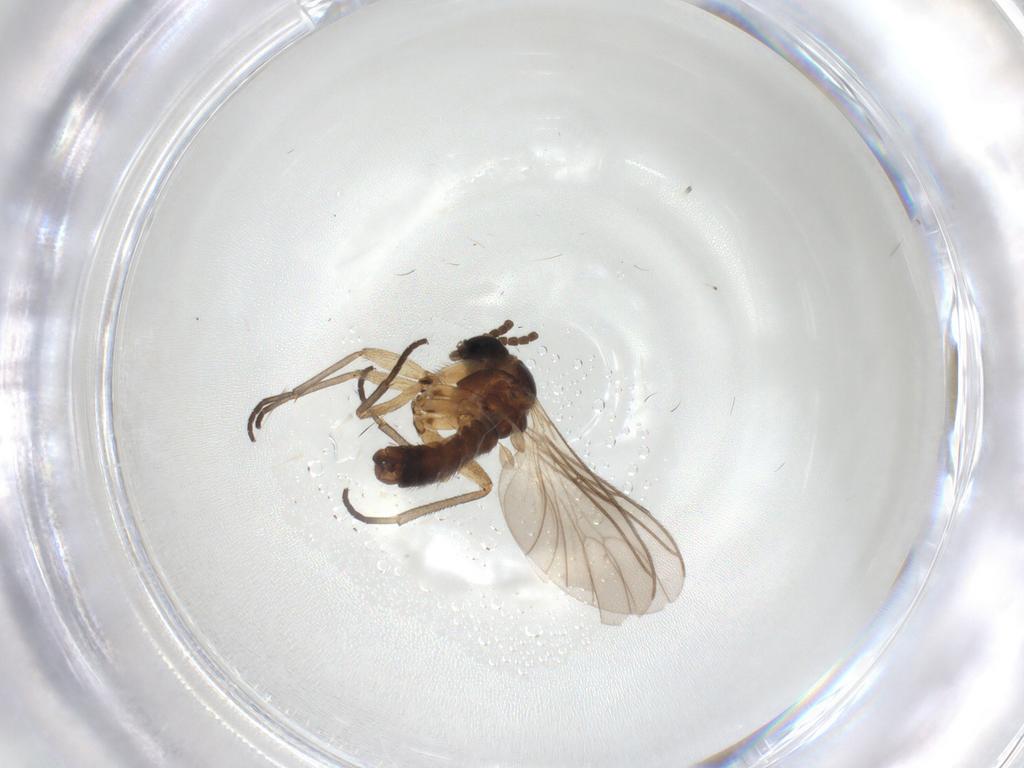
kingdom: Animalia
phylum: Arthropoda
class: Insecta
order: Diptera
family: Sciaridae
